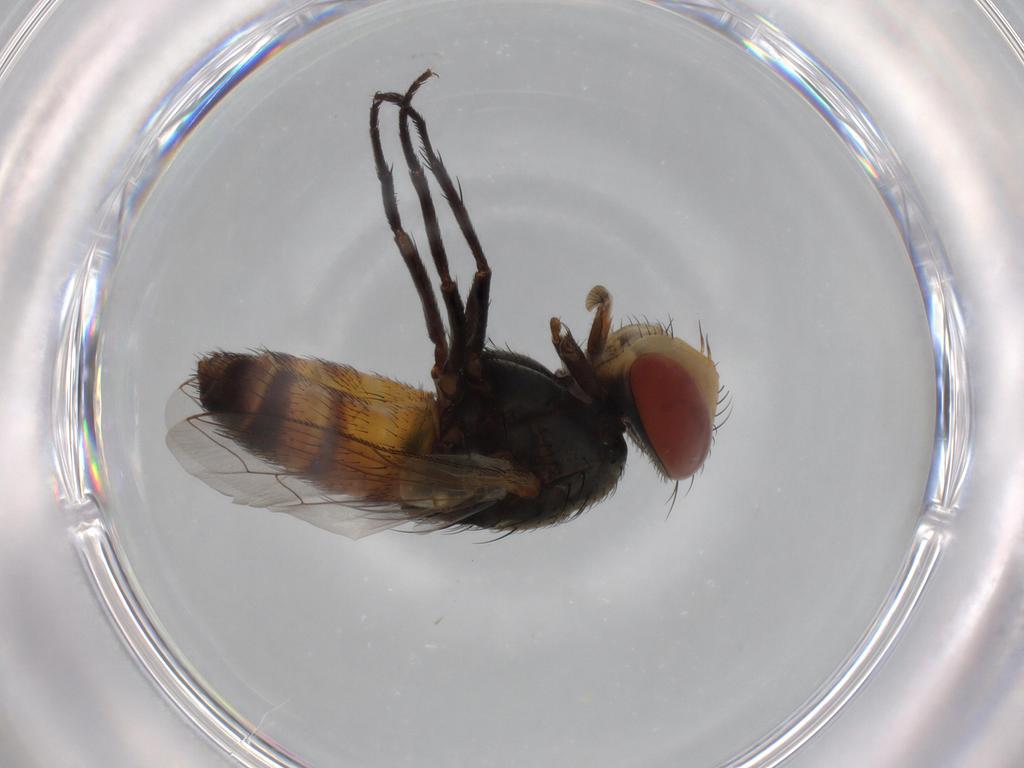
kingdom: Animalia
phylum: Arthropoda
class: Insecta
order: Diptera
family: Sarcophagidae
